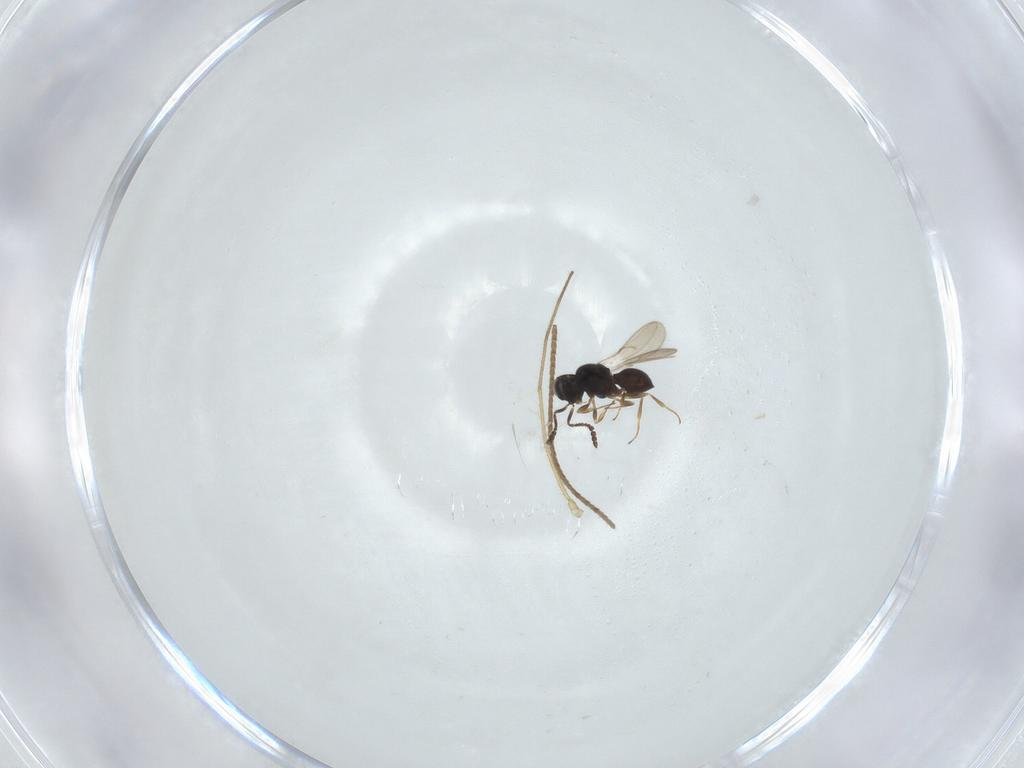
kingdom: Animalia
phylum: Arthropoda
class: Insecta
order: Lepidoptera
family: Adelidae
